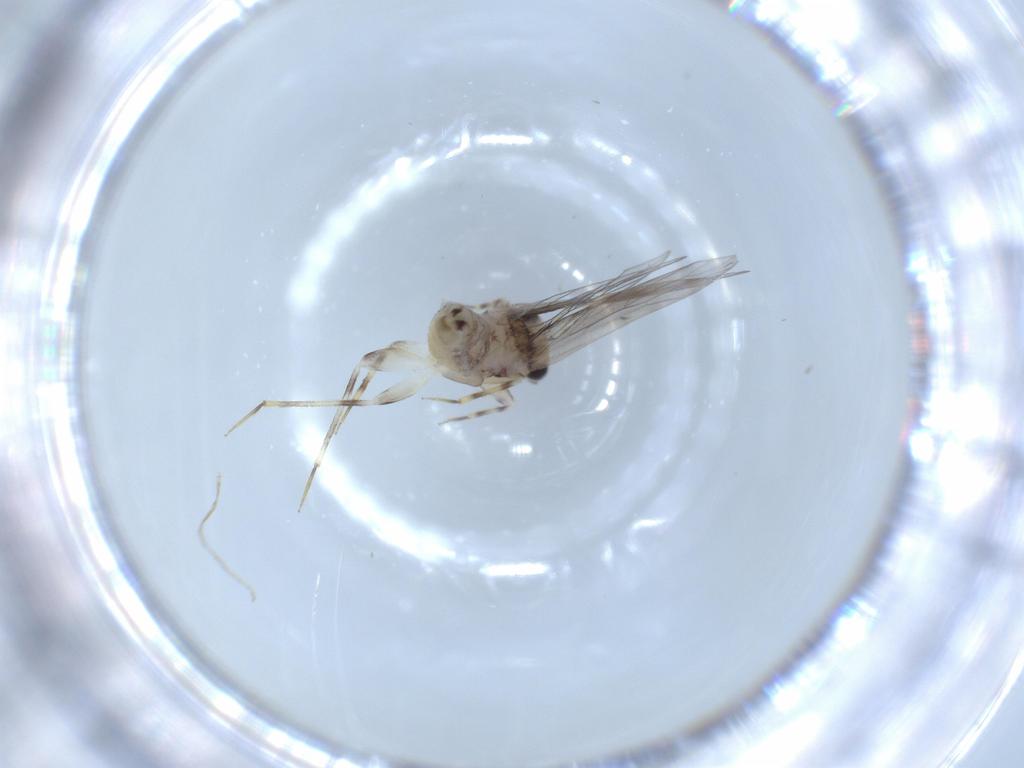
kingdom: Animalia
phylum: Arthropoda
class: Insecta
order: Psocodea
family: Lepidopsocidae
